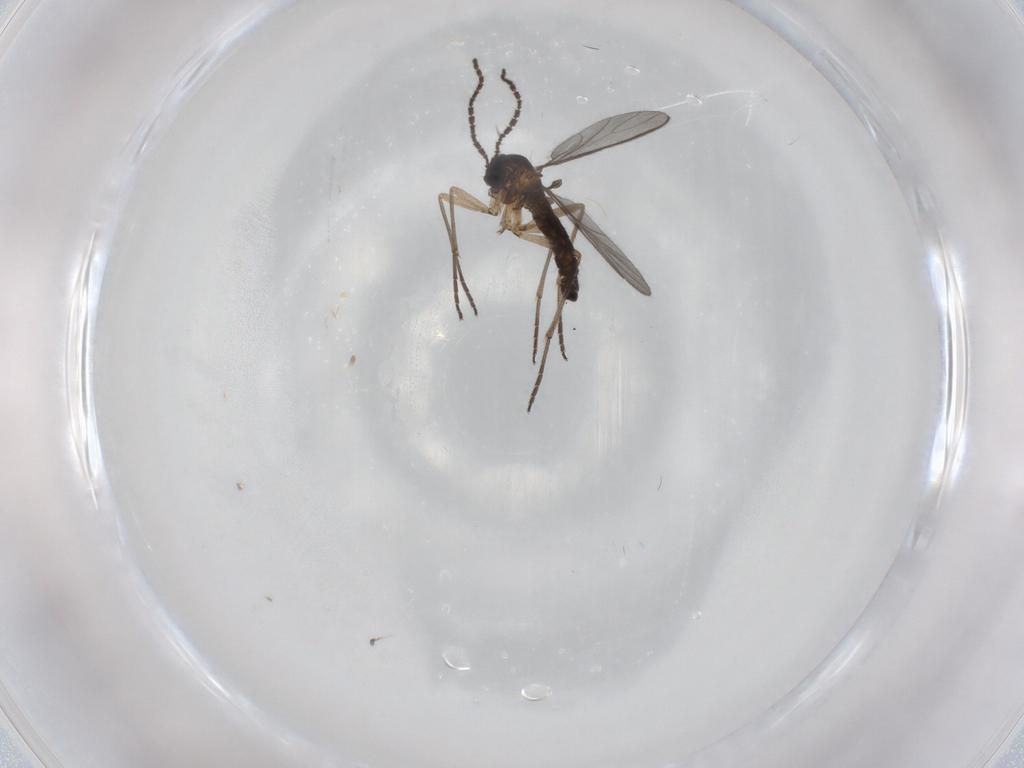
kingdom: Animalia
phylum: Arthropoda
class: Insecta
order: Diptera
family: Sciaridae
